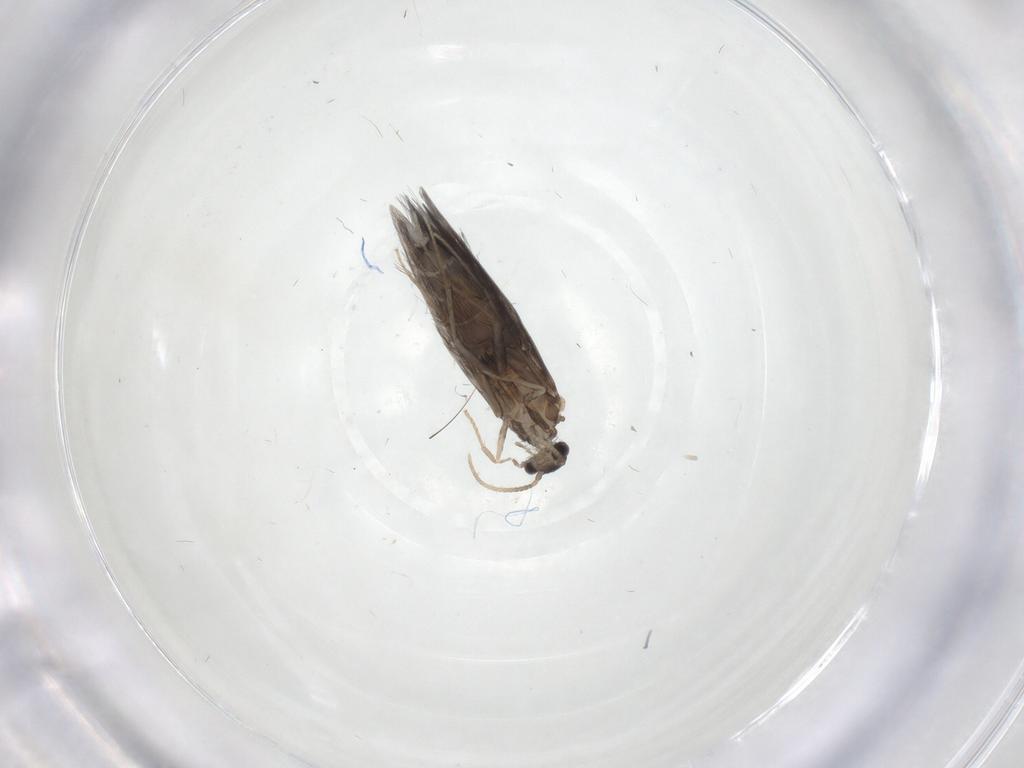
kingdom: Animalia
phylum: Arthropoda
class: Insecta
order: Trichoptera
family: Hydroptilidae
